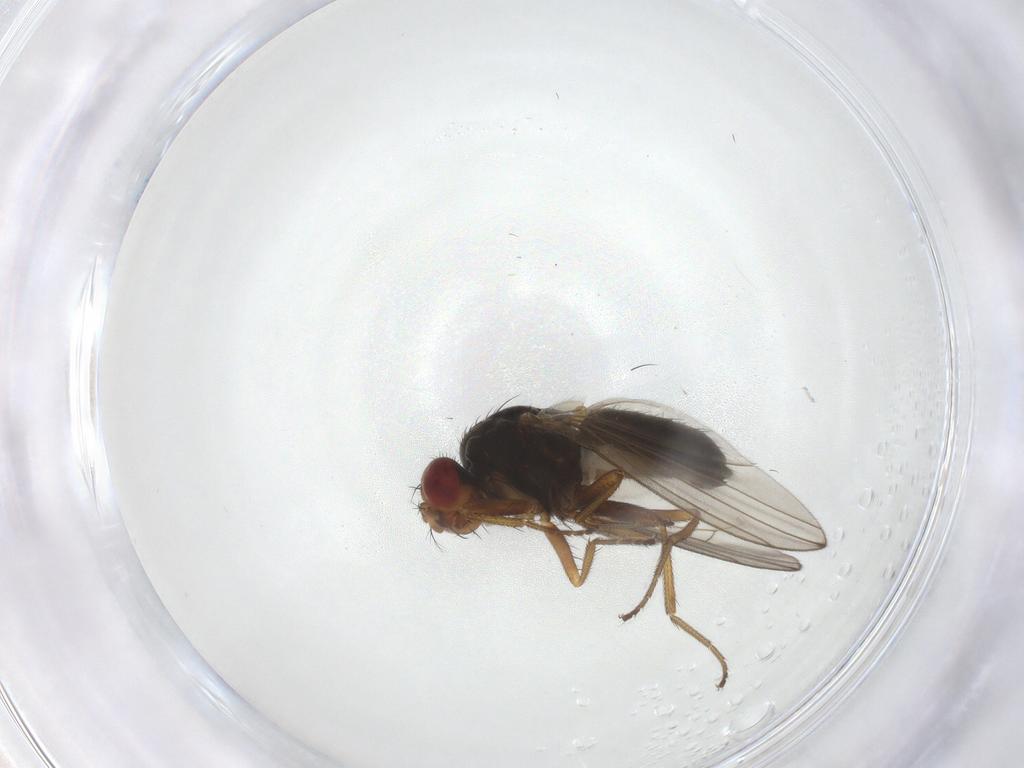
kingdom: Animalia
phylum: Arthropoda
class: Insecta
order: Diptera
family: Drosophilidae
